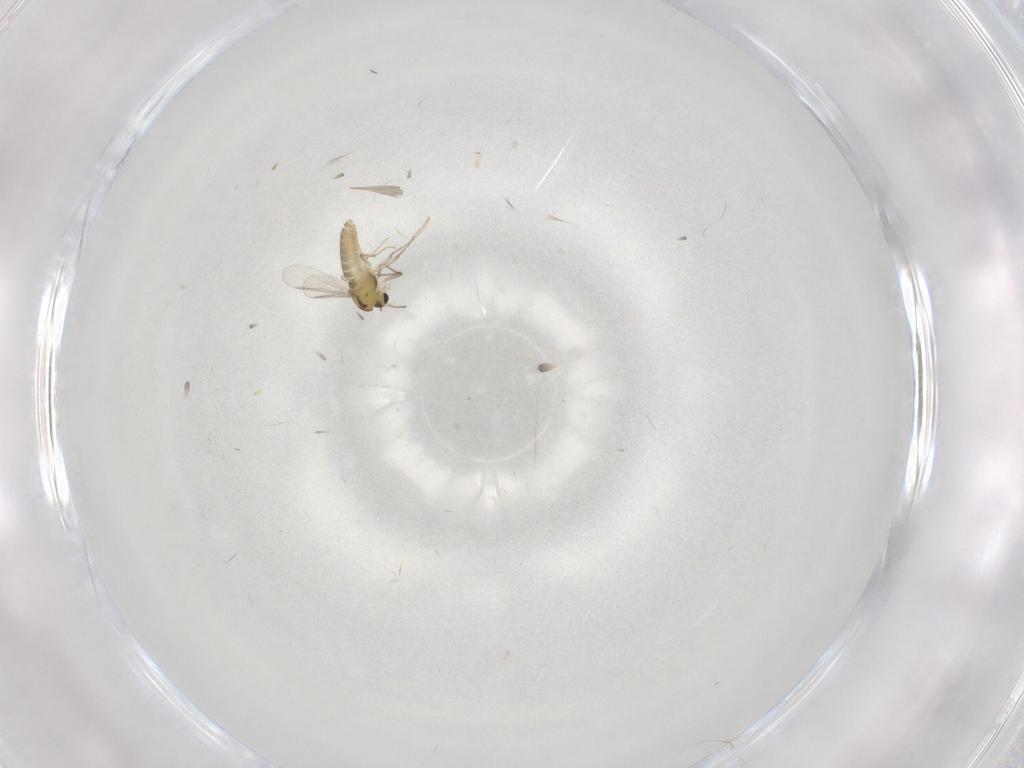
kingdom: Animalia
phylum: Arthropoda
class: Insecta
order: Diptera
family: Chironomidae
